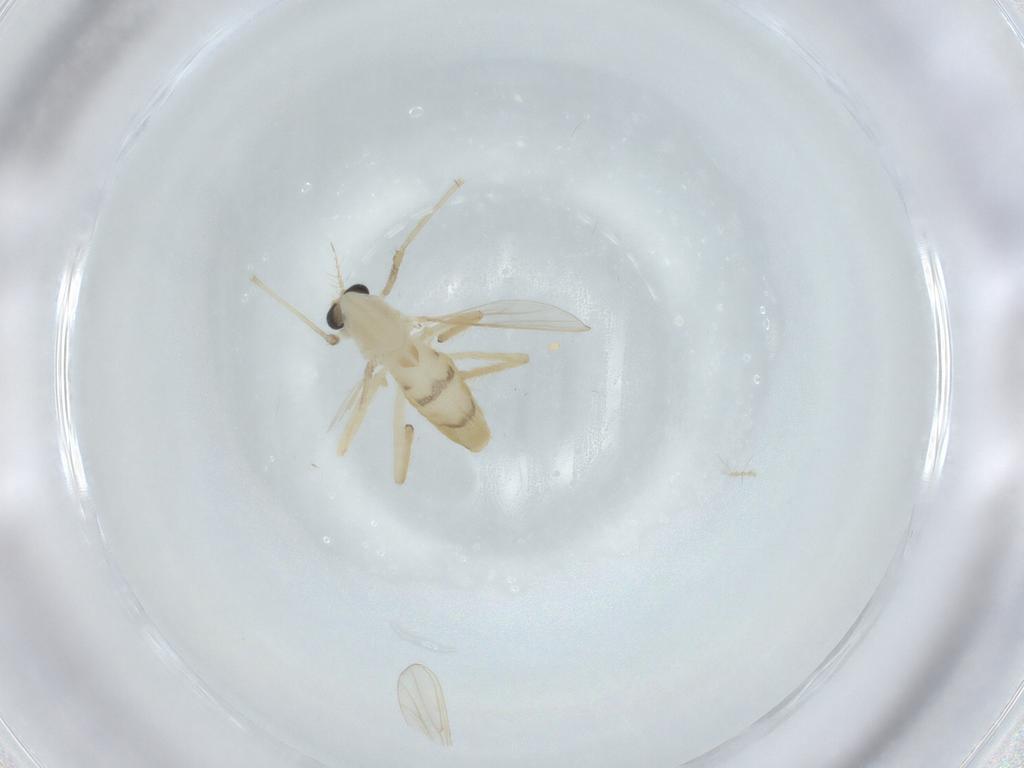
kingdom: Animalia
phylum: Arthropoda
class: Insecta
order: Diptera
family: Chironomidae
